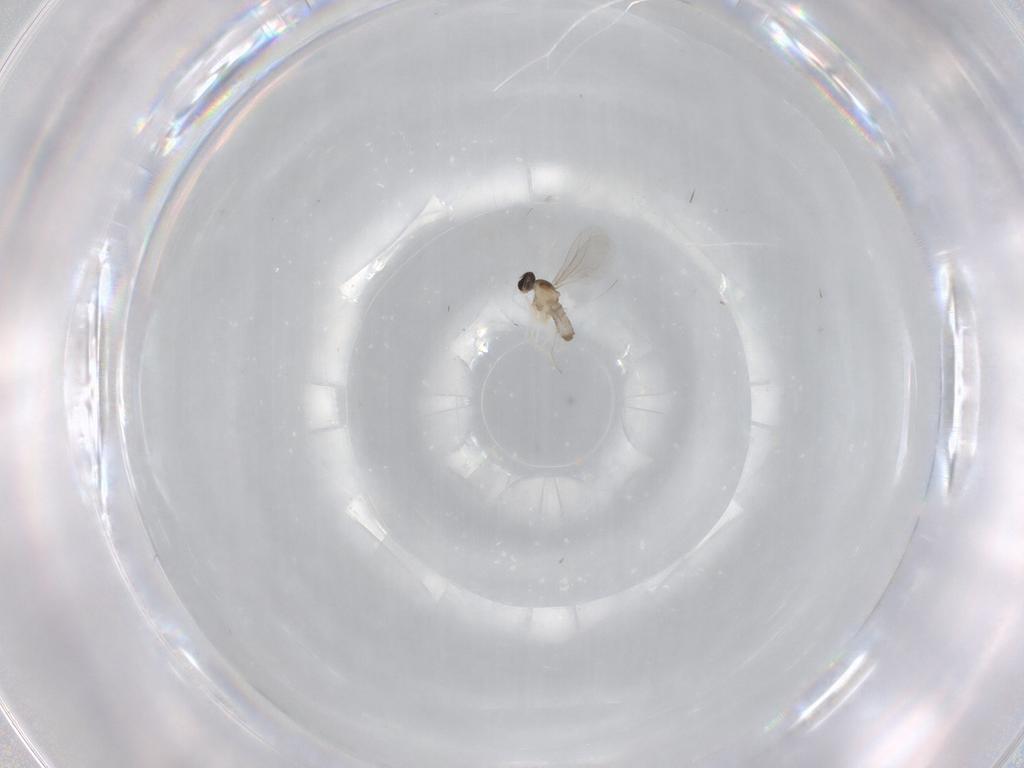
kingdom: Animalia
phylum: Arthropoda
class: Insecta
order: Diptera
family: Cecidomyiidae
